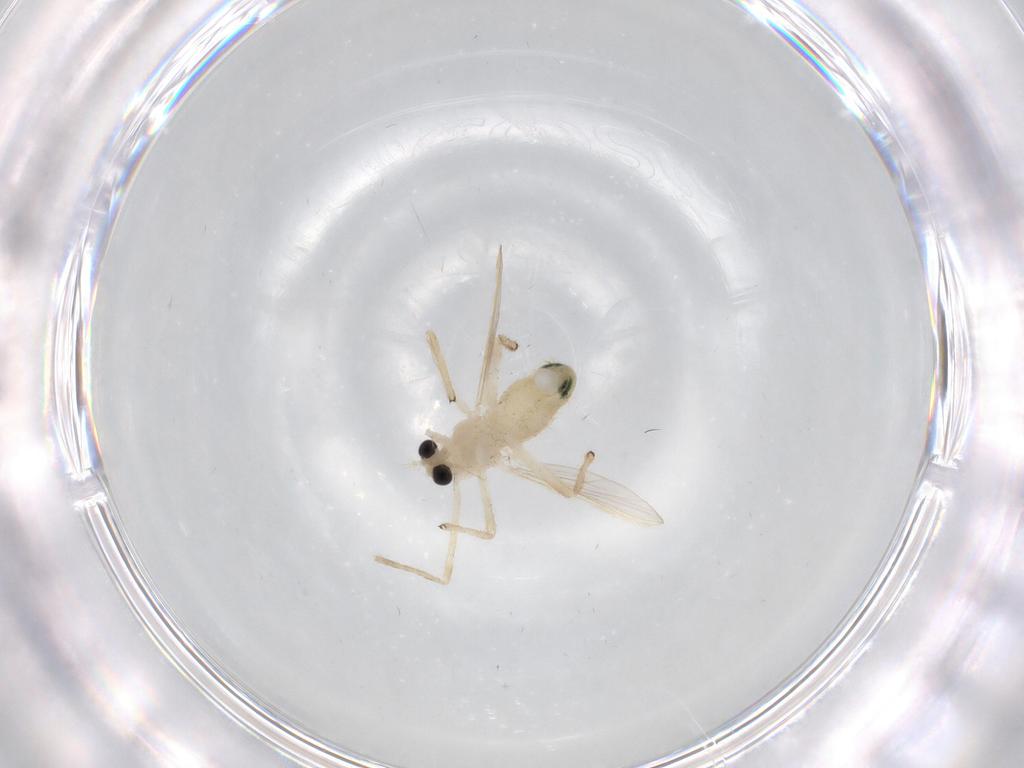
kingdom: Animalia
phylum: Arthropoda
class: Insecta
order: Diptera
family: Chironomidae
